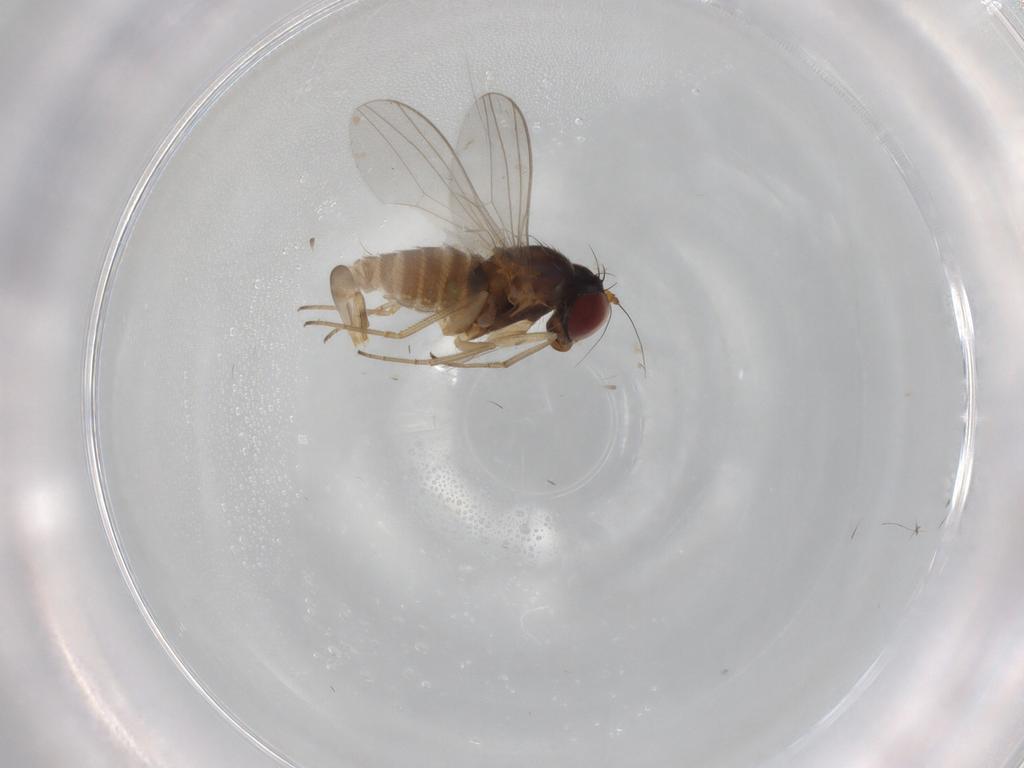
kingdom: Animalia
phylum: Arthropoda
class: Insecta
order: Diptera
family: Dolichopodidae
